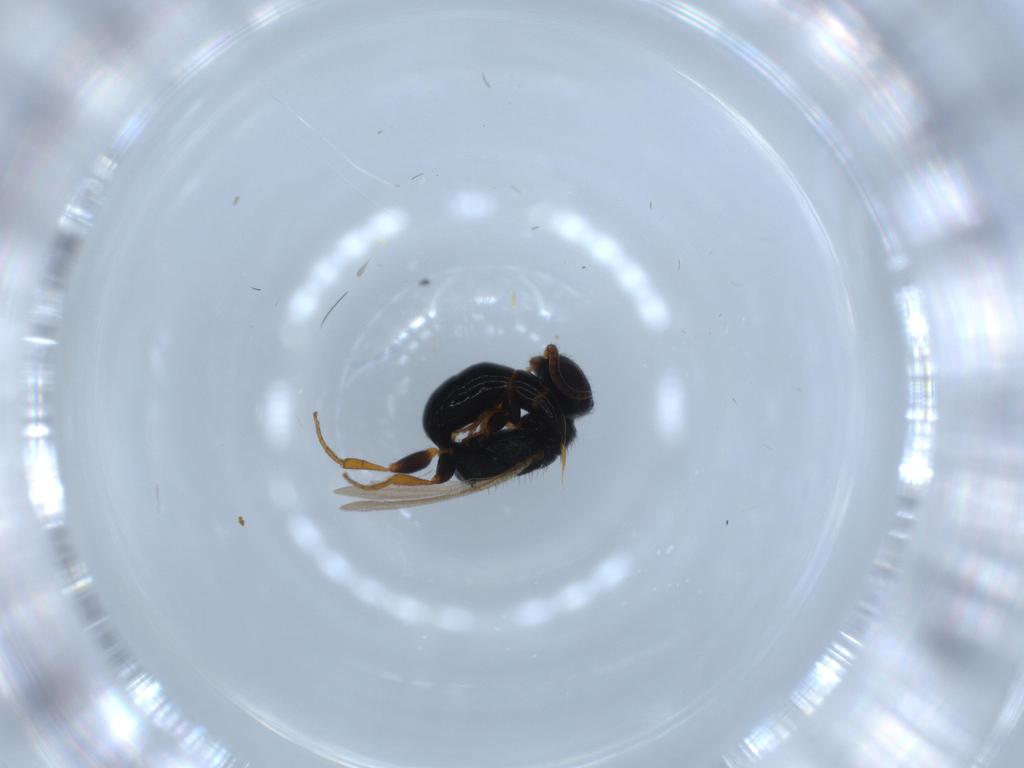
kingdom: Animalia
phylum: Arthropoda
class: Insecta
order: Hymenoptera
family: Bethylidae
